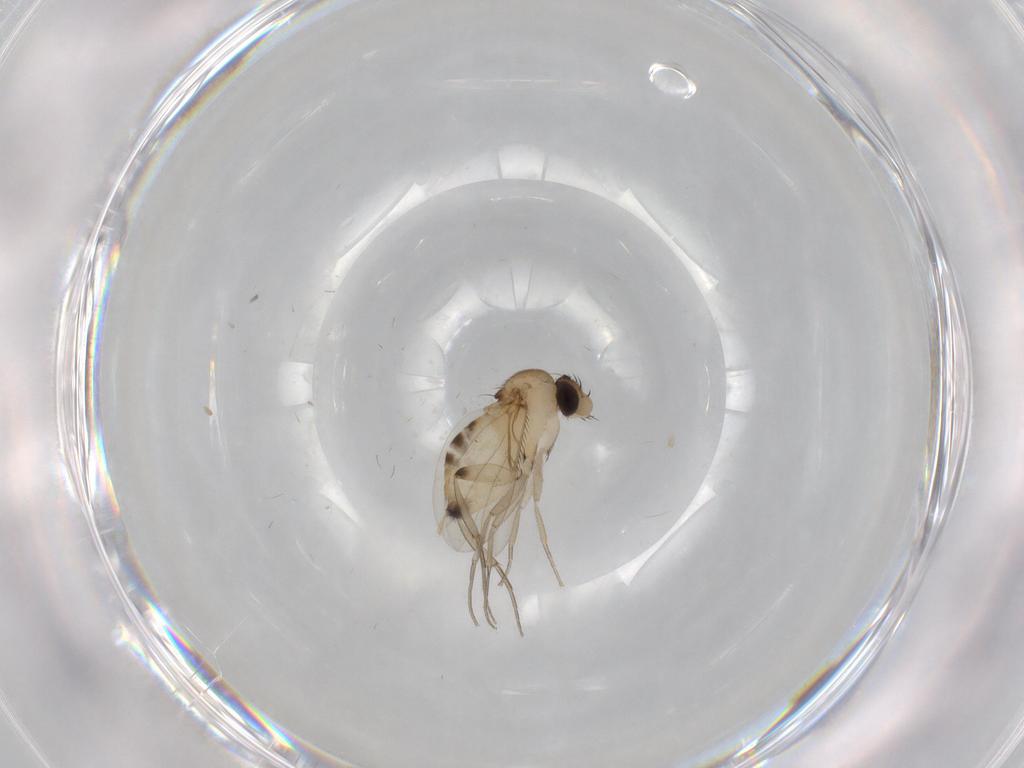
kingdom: Animalia
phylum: Arthropoda
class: Insecta
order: Diptera
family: Phoridae
